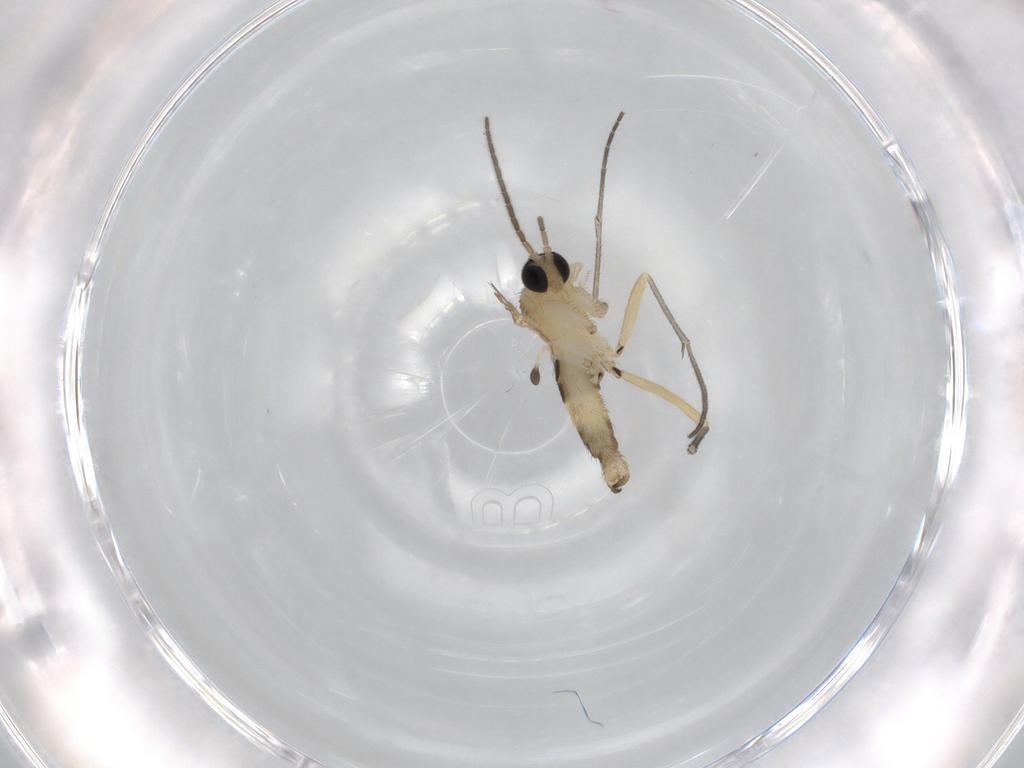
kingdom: Animalia
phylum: Arthropoda
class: Insecta
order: Diptera
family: Sciaridae
